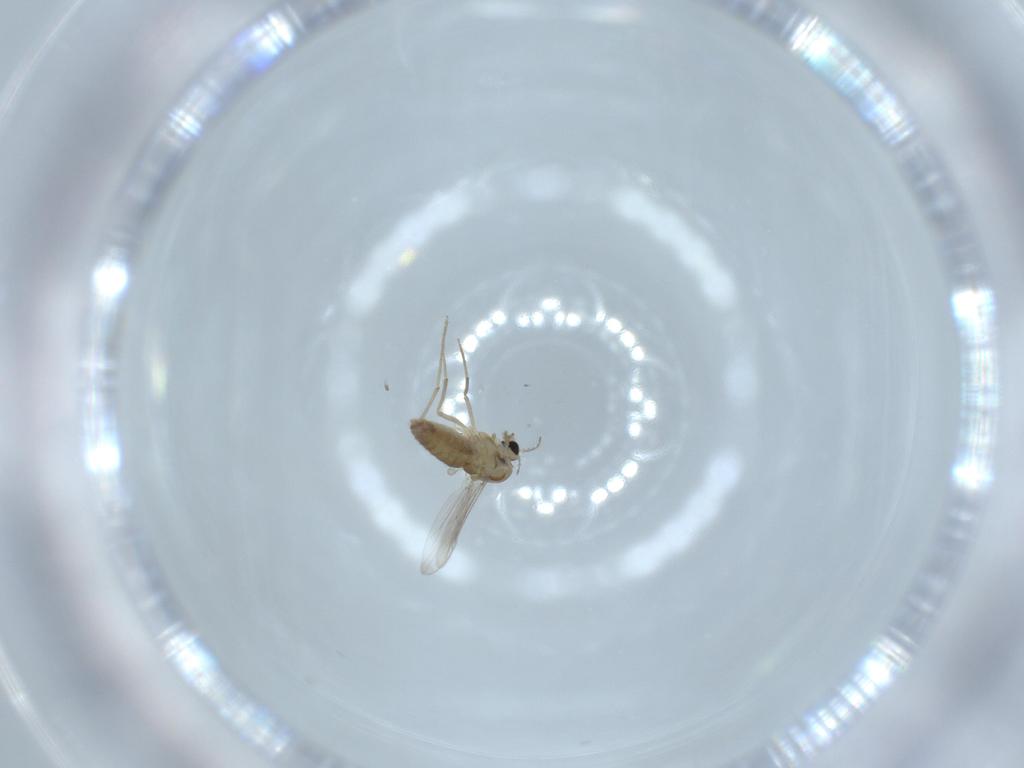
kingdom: Animalia
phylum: Arthropoda
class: Insecta
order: Diptera
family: Chironomidae
